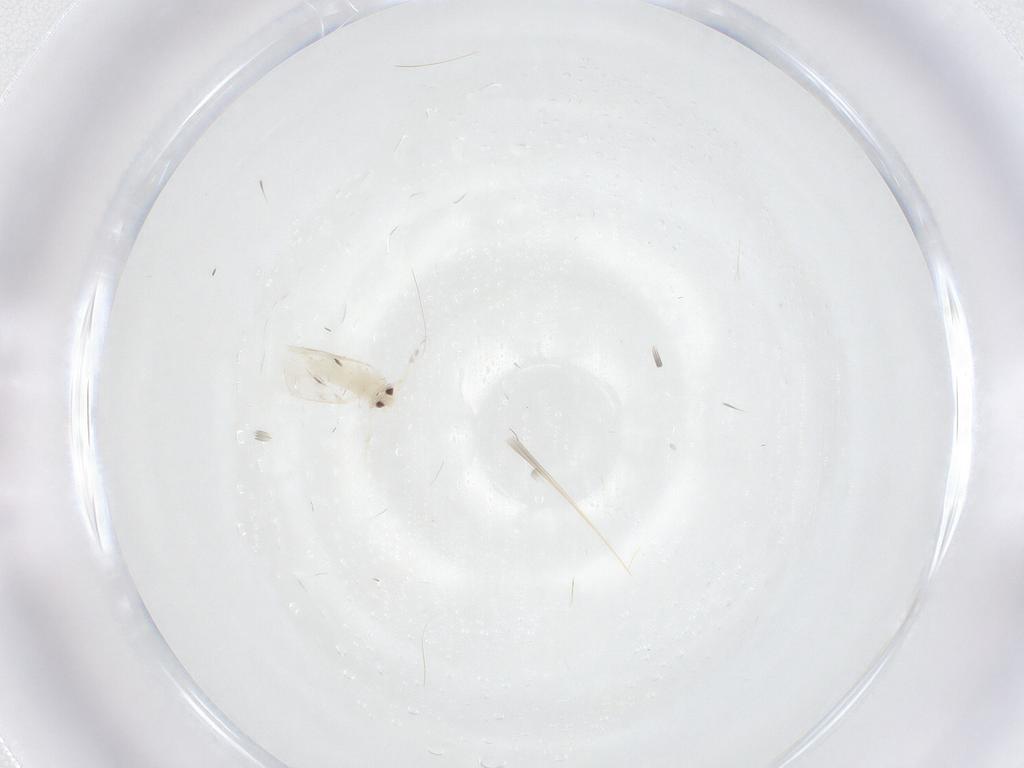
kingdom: Animalia
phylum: Arthropoda
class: Insecta
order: Hemiptera
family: Aleyrodidae
